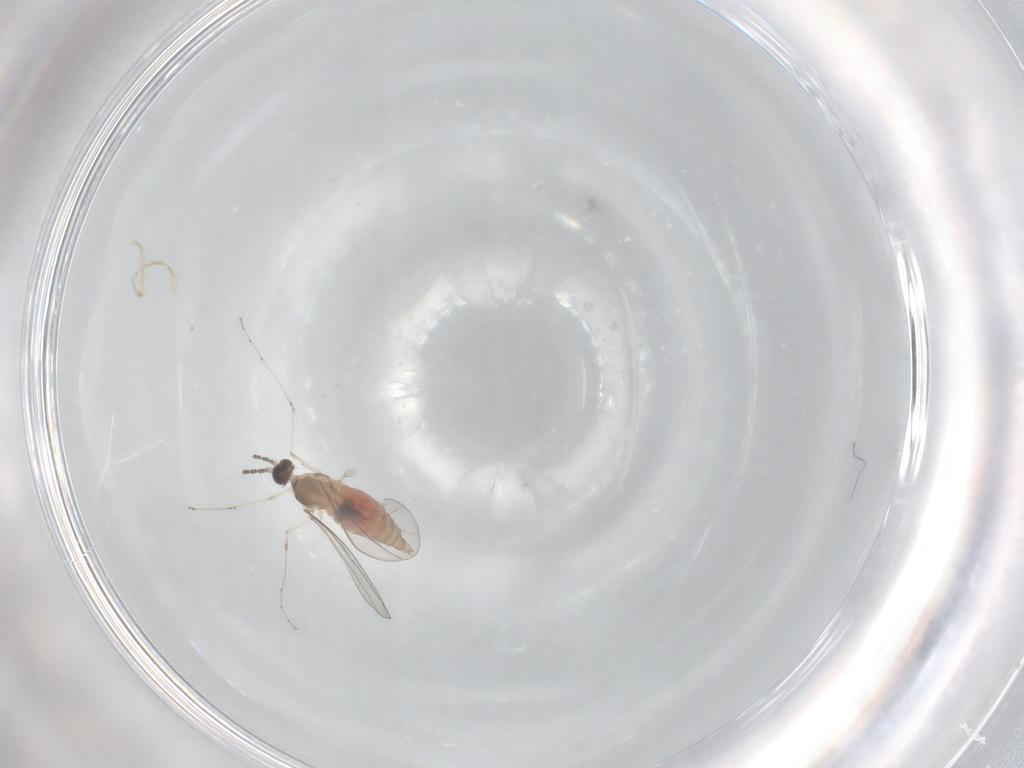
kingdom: Animalia
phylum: Arthropoda
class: Insecta
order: Diptera
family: Cecidomyiidae
